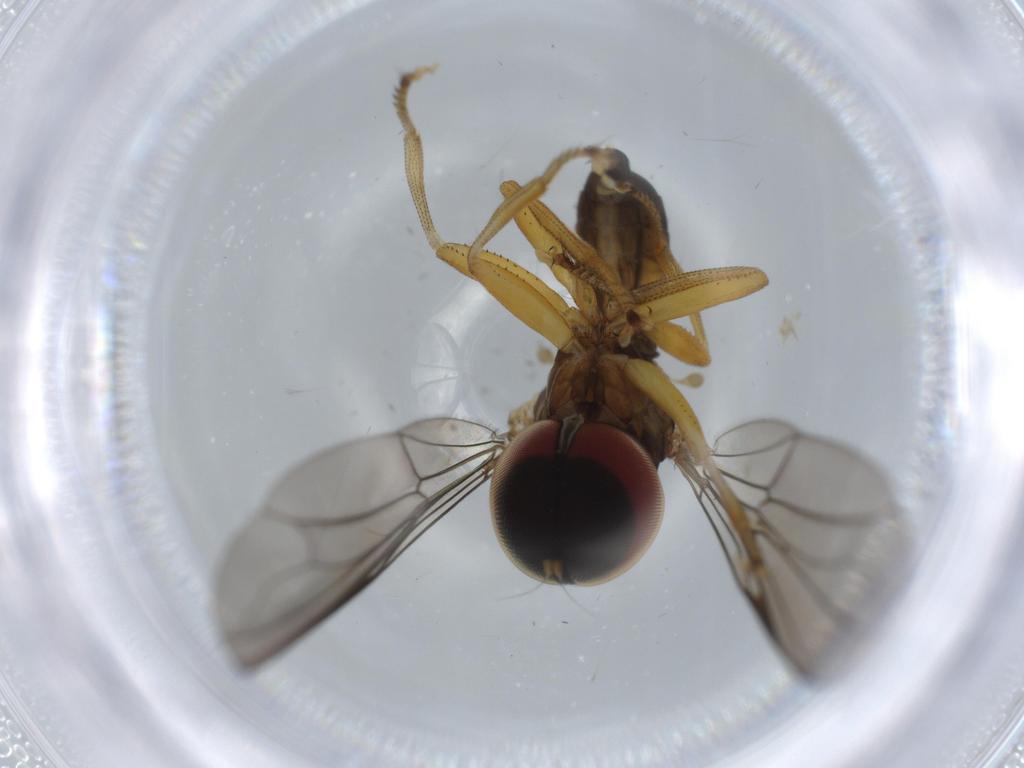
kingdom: Animalia
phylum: Arthropoda
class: Insecta
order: Diptera
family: Pipunculidae
